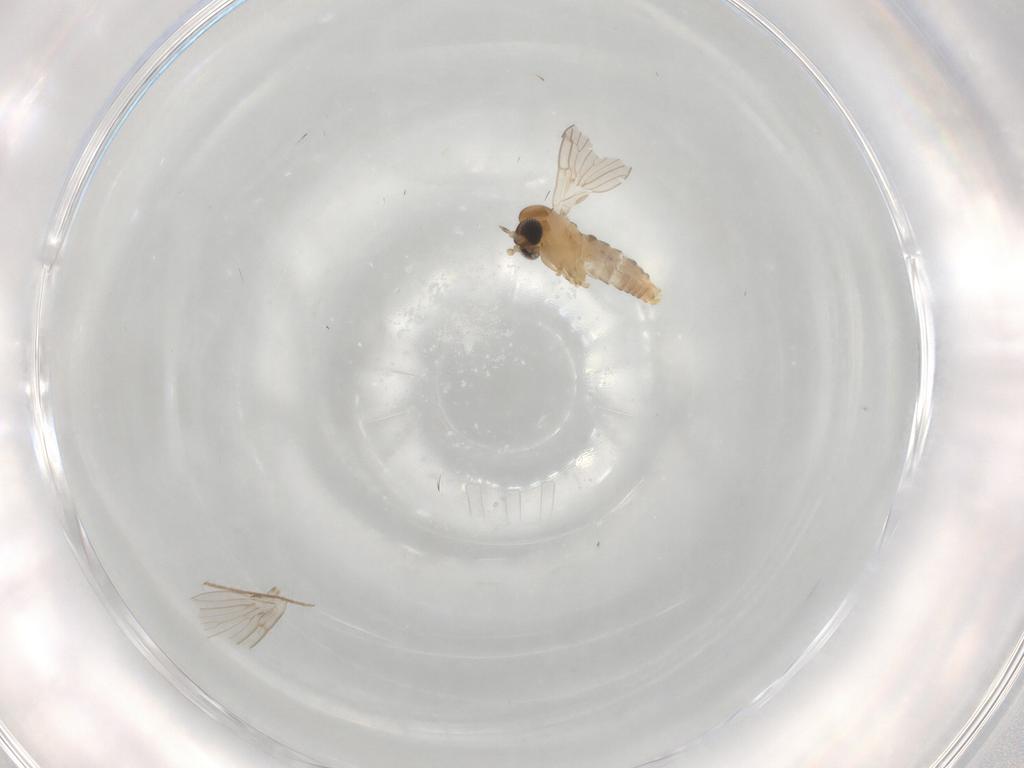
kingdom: Animalia
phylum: Arthropoda
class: Insecta
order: Diptera
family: Psychodidae
